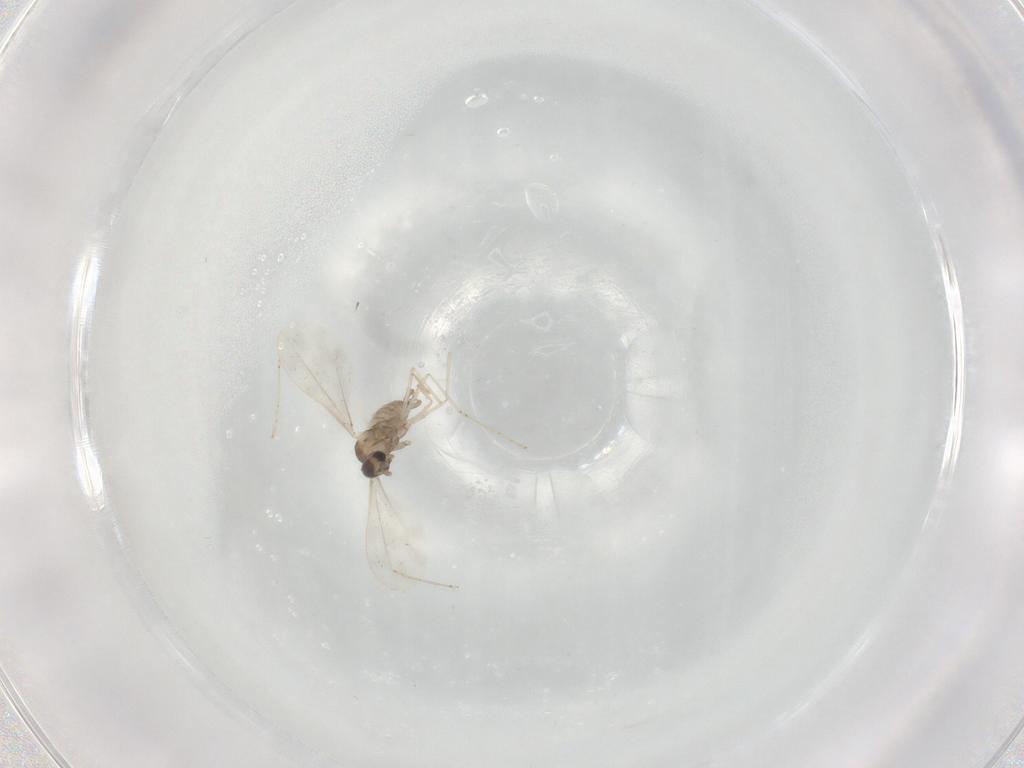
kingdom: Animalia
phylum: Arthropoda
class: Insecta
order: Diptera
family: Cecidomyiidae
